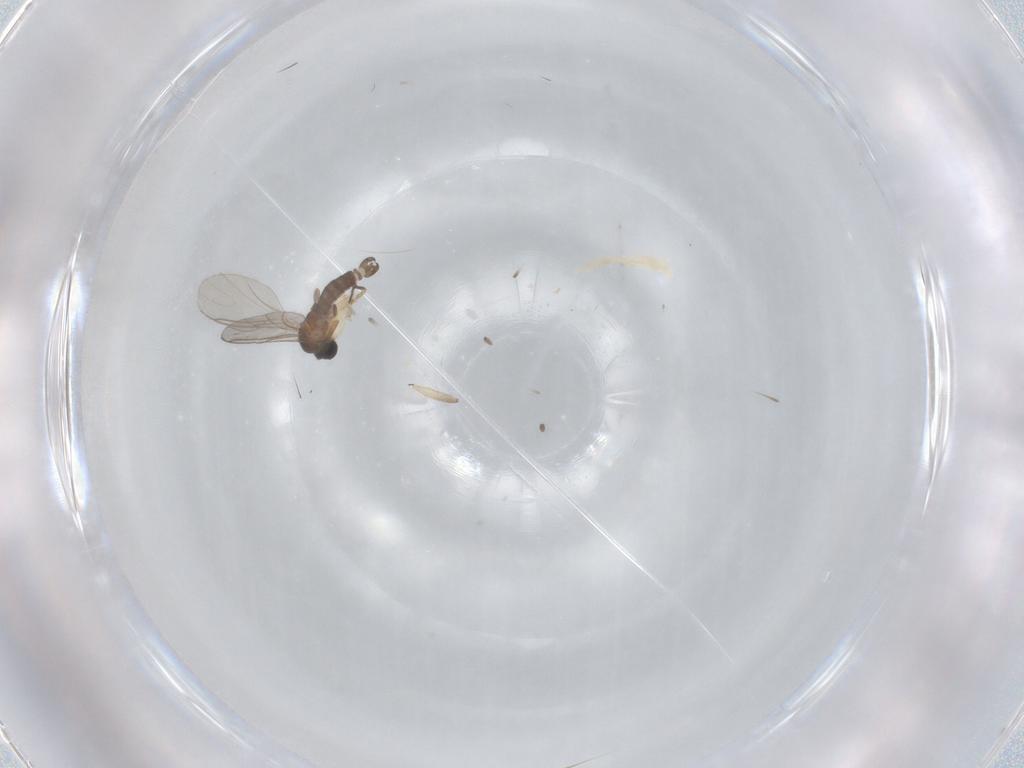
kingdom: Animalia
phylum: Arthropoda
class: Insecta
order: Diptera
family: Sciaridae
